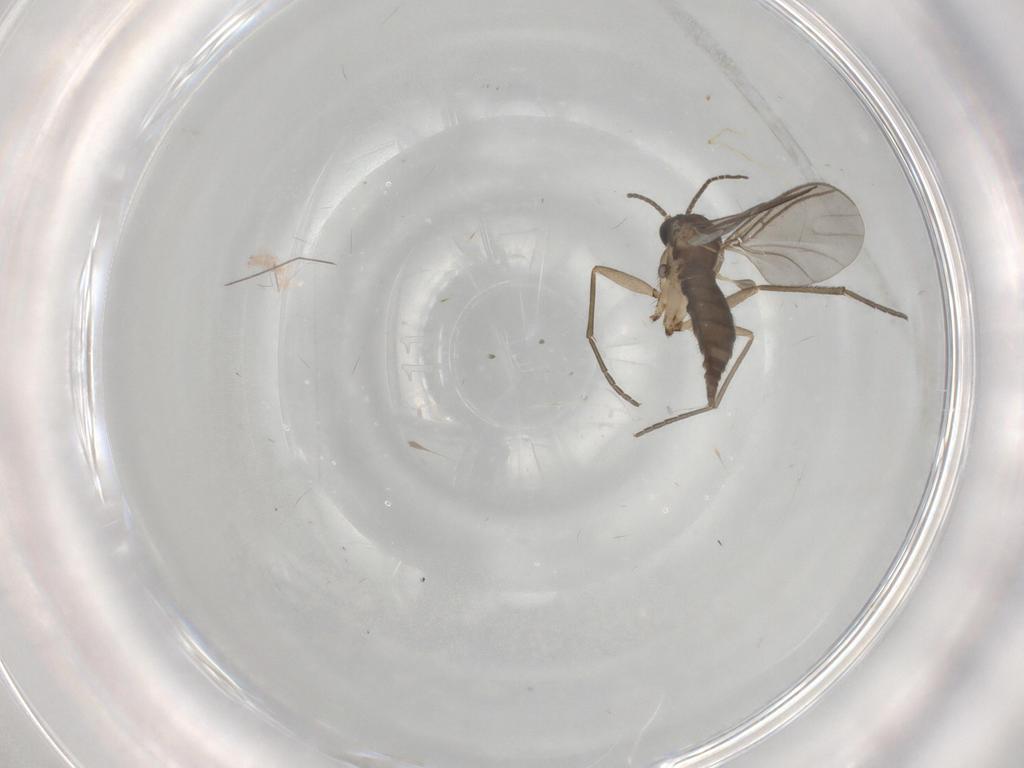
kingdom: Animalia
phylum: Arthropoda
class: Insecta
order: Diptera
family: Sciaridae
